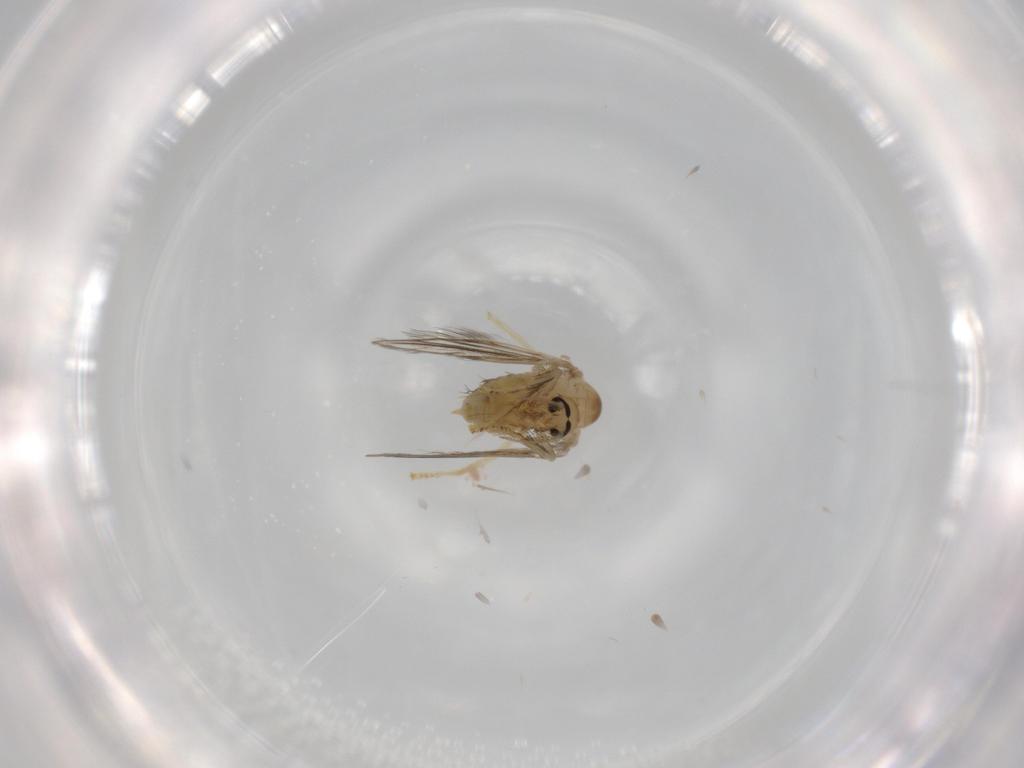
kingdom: Animalia
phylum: Arthropoda
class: Insecta
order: Diptera
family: Psychodidae
